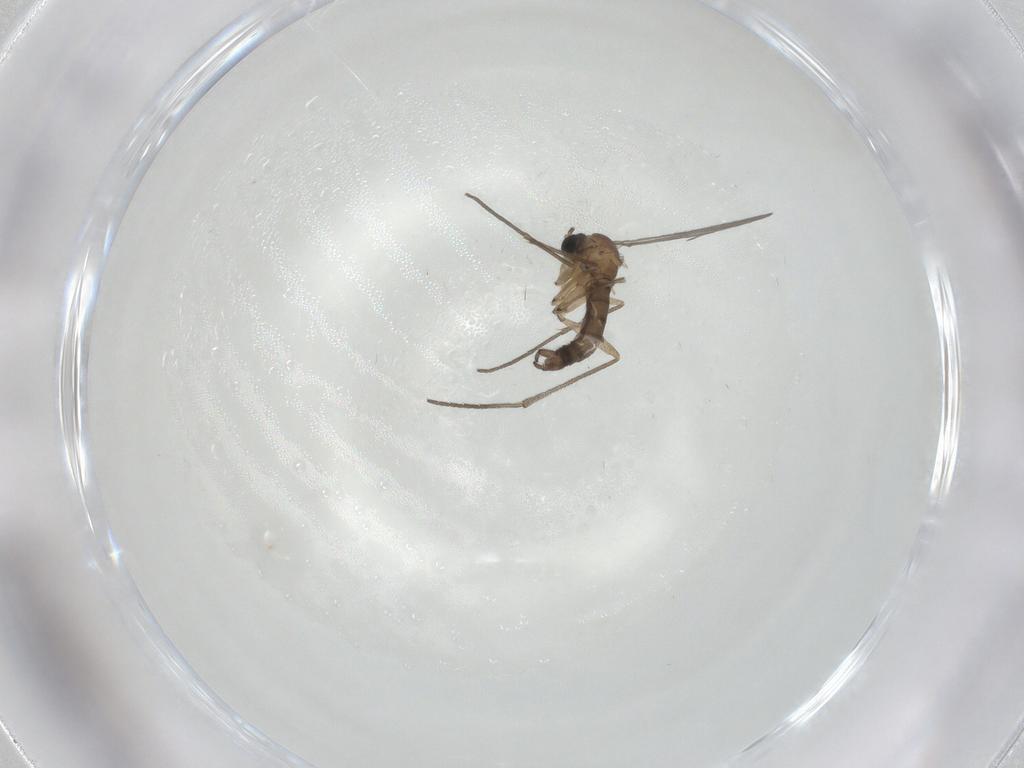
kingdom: Animalia
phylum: Arthropoda
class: Insecta
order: Diptera
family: Sciaridae
